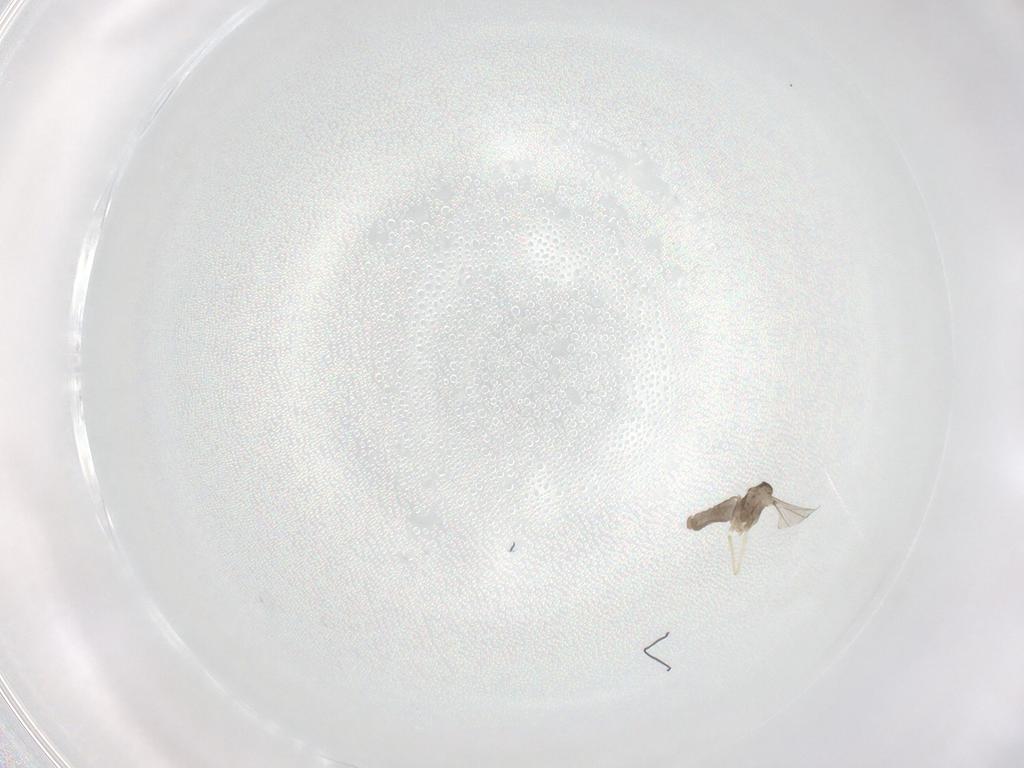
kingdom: Animalia
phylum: Arthropoda
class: Insecta
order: Diptera
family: Cecidomyiidae
